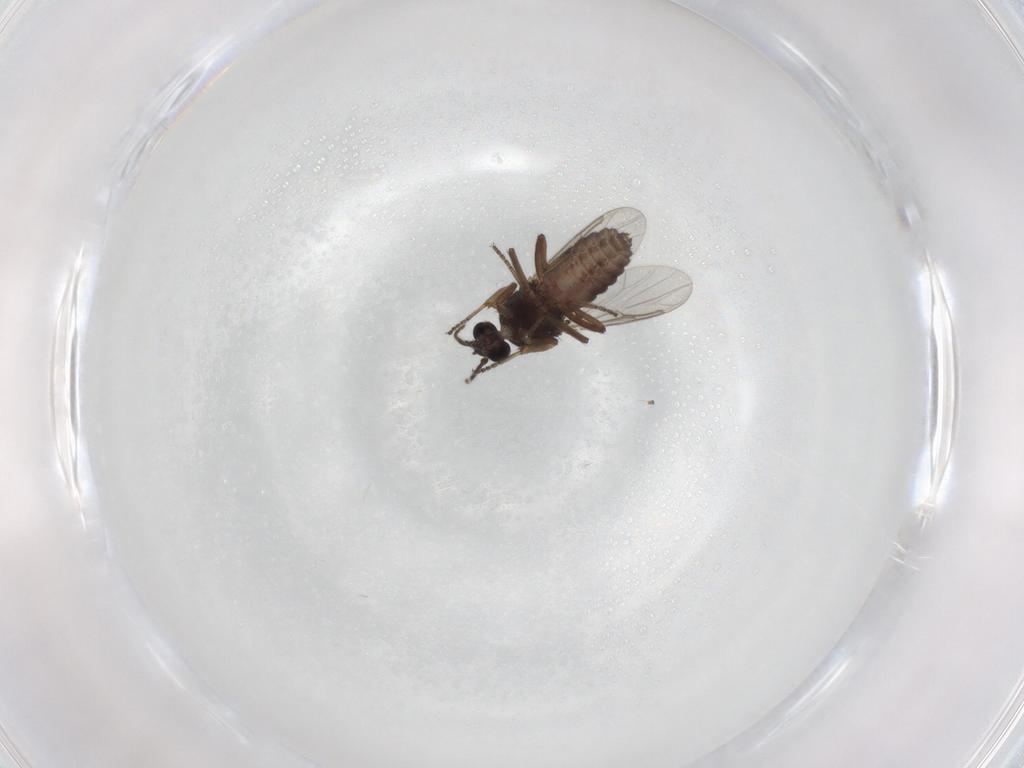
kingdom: Animalia
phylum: Arthropoda
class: Insecta
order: Diptera
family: Ceratopogonidae
